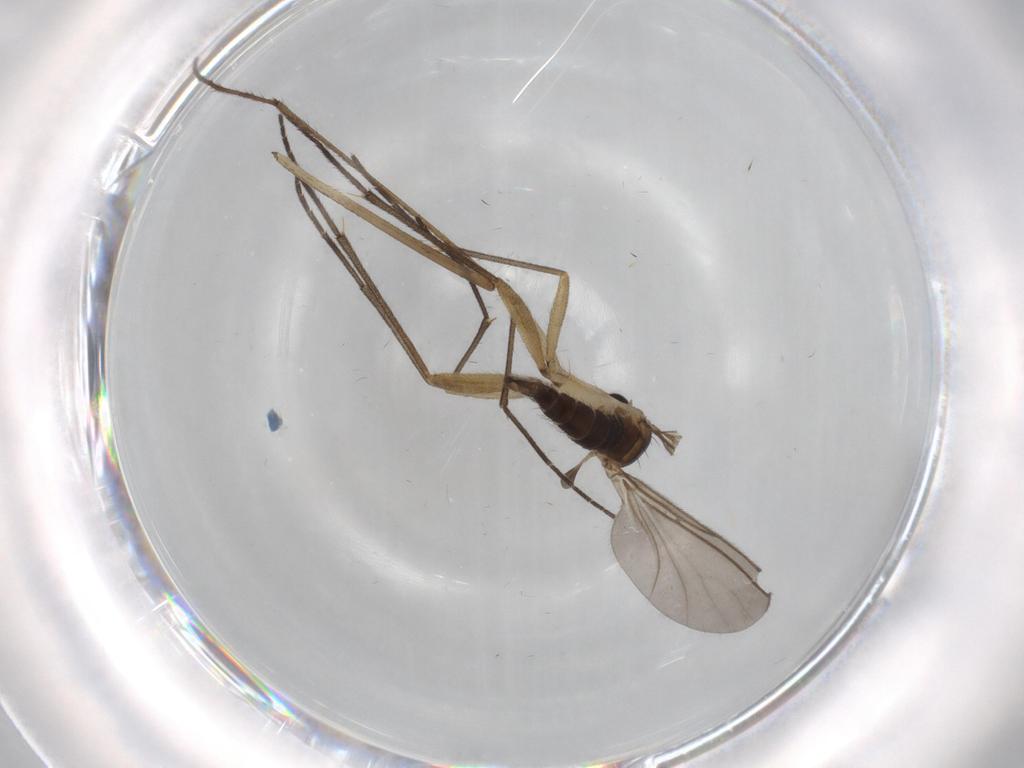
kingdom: Animalia
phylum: Arthropoda
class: Insecta
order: Diptera
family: Sciaridae
